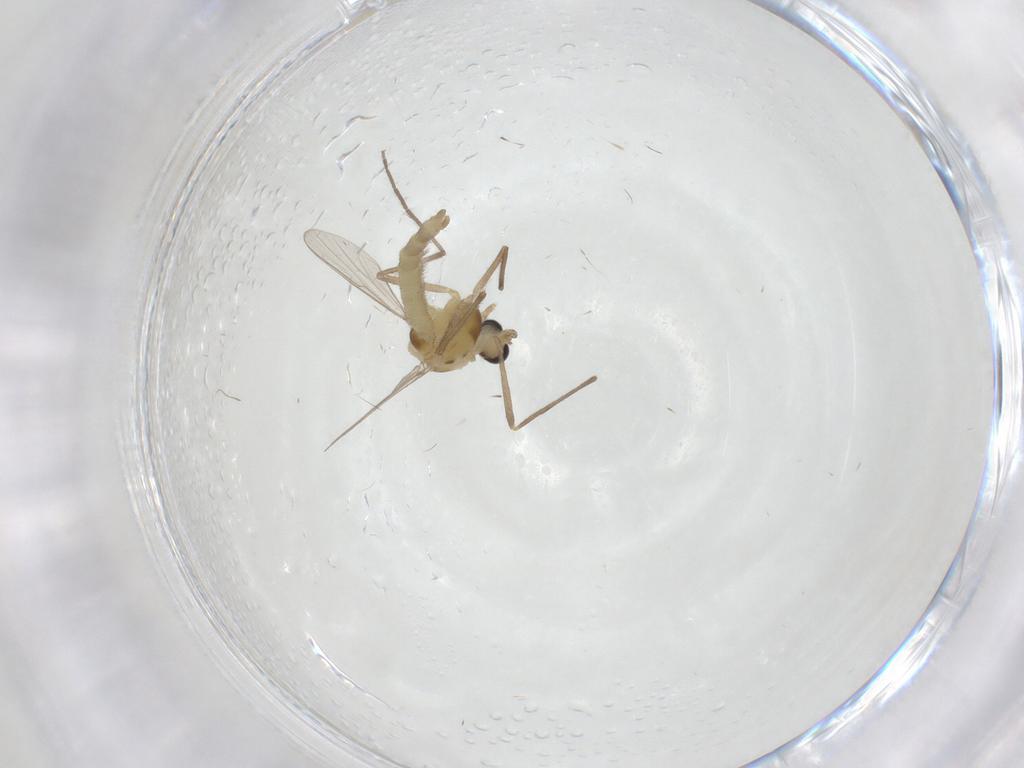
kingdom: Animalia
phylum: Arthropoda
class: Insecta
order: Diptera
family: Chironomidae
